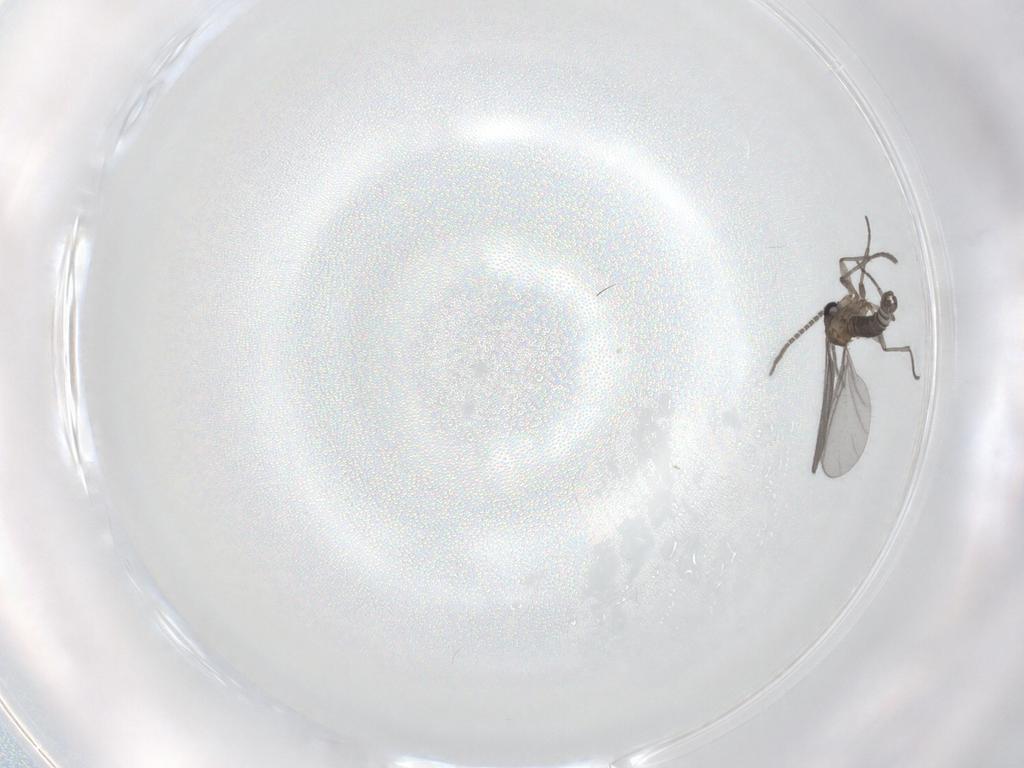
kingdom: Animalia
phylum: Arthropoda
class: Insecta
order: Diptera
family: Sciaridae
